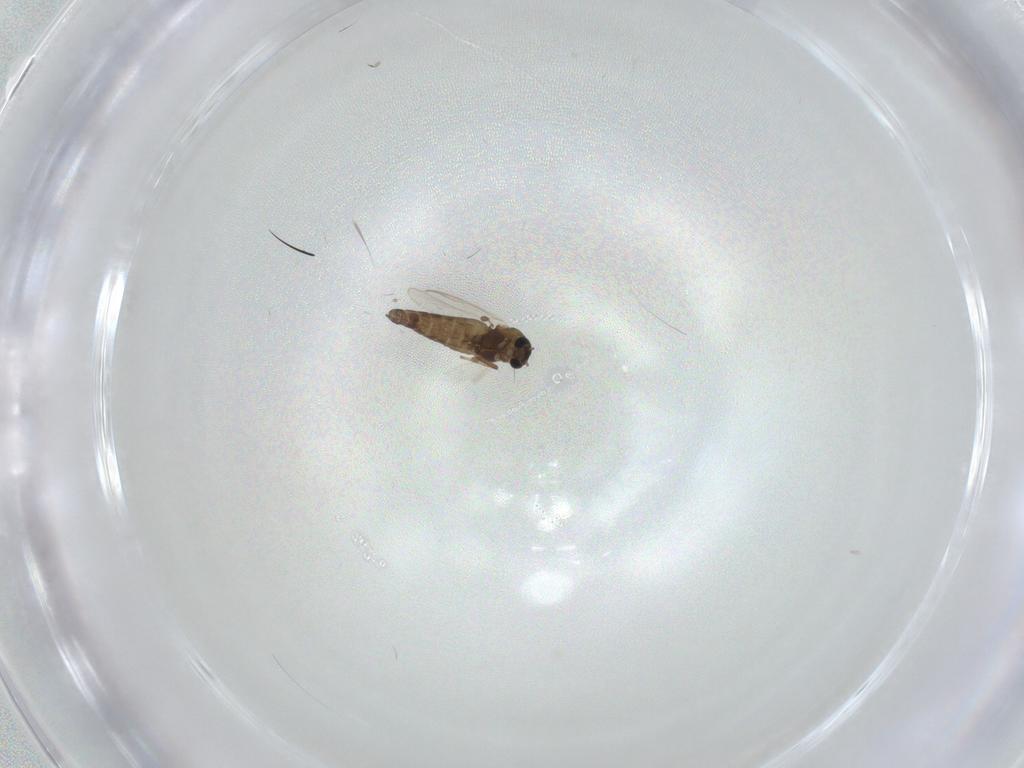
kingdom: Animalia
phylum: Arthropoda
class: Insecta
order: Diptera
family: Chironomidae
